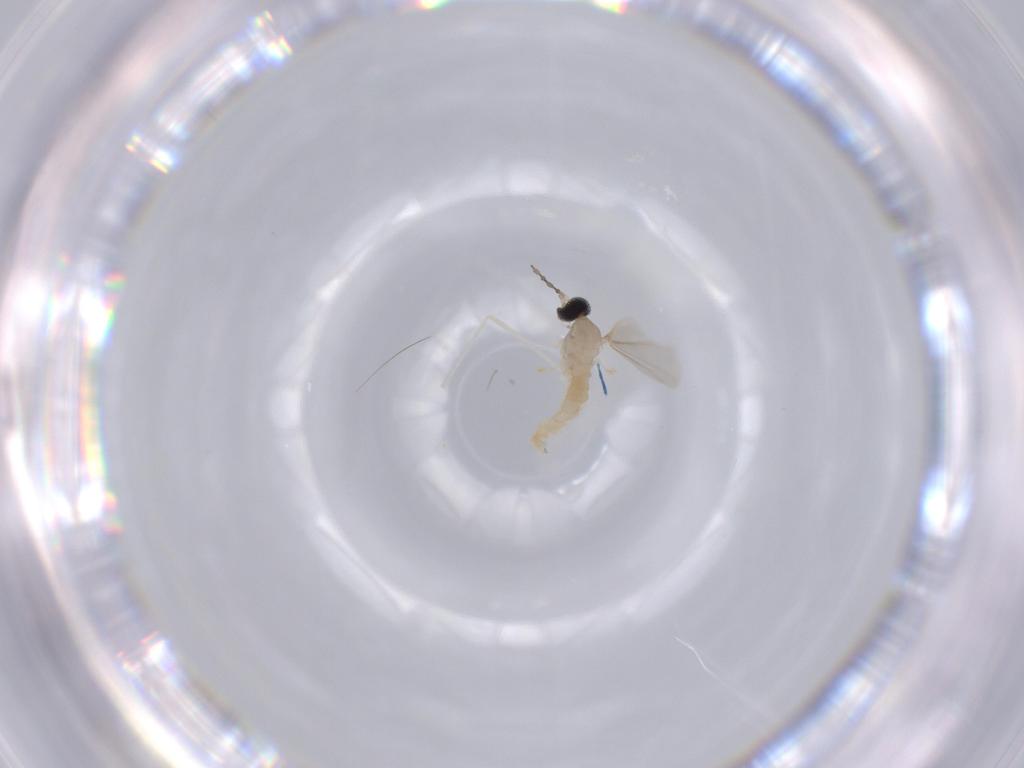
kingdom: Animalia
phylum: Arthropoda
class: Insecta
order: Diptera
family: Cecidomyiidae
